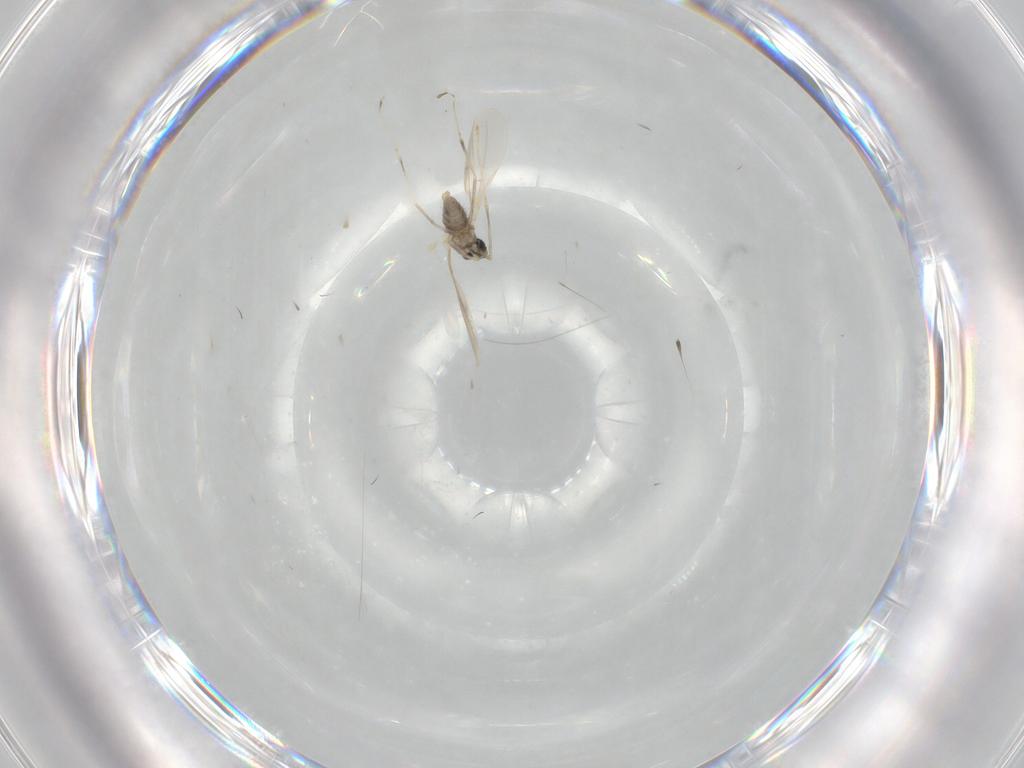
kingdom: Animalia
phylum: Arthropoda
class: Insecta
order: Diptera
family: Cecidomyiidae
